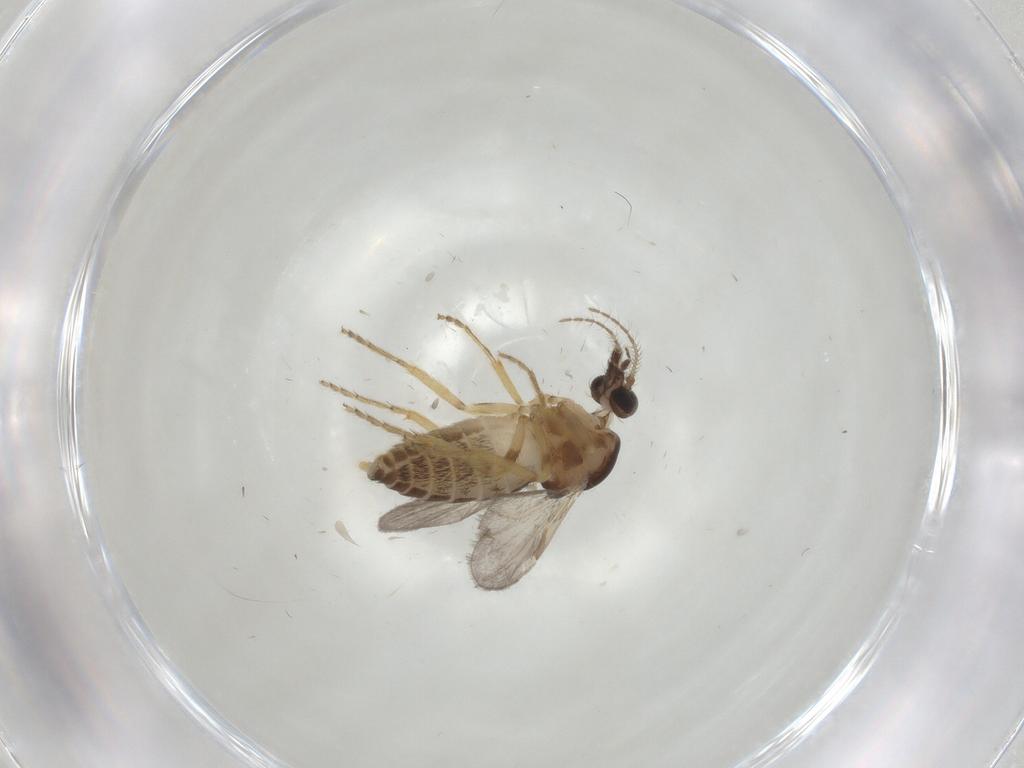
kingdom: Animalia
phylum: Arthropoda
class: Insecta
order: Diptera
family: Ceratopogonidae
